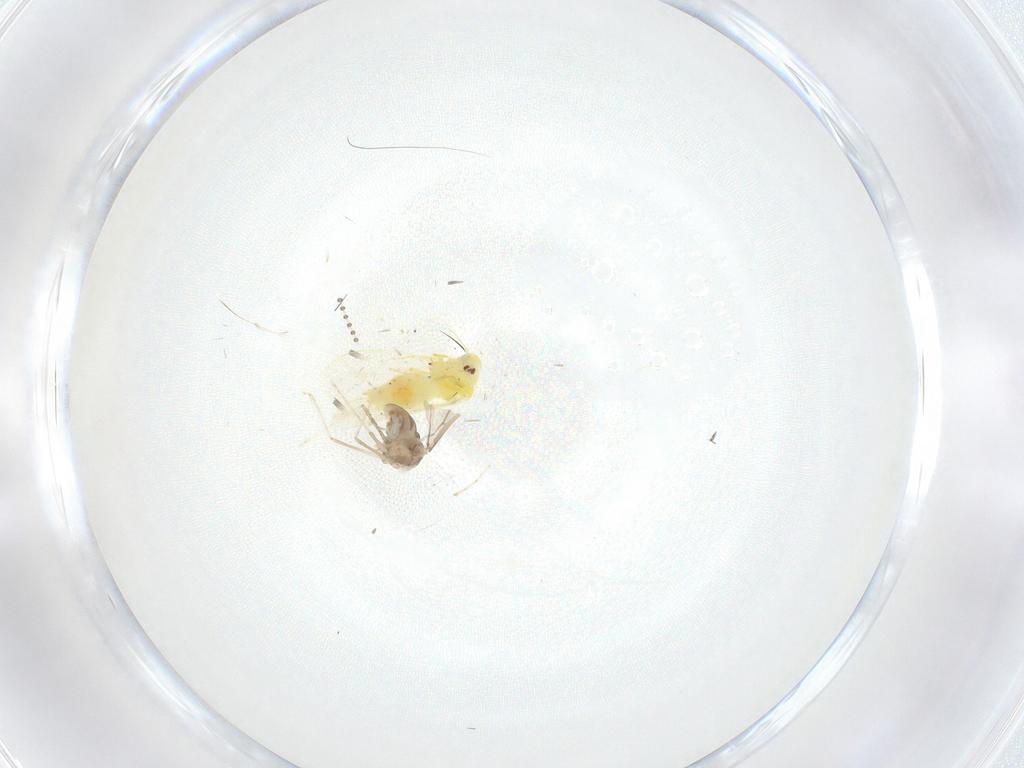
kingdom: Animalia
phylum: Arthropoda
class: Insecta
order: Diptera
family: Cecidomyiidae
